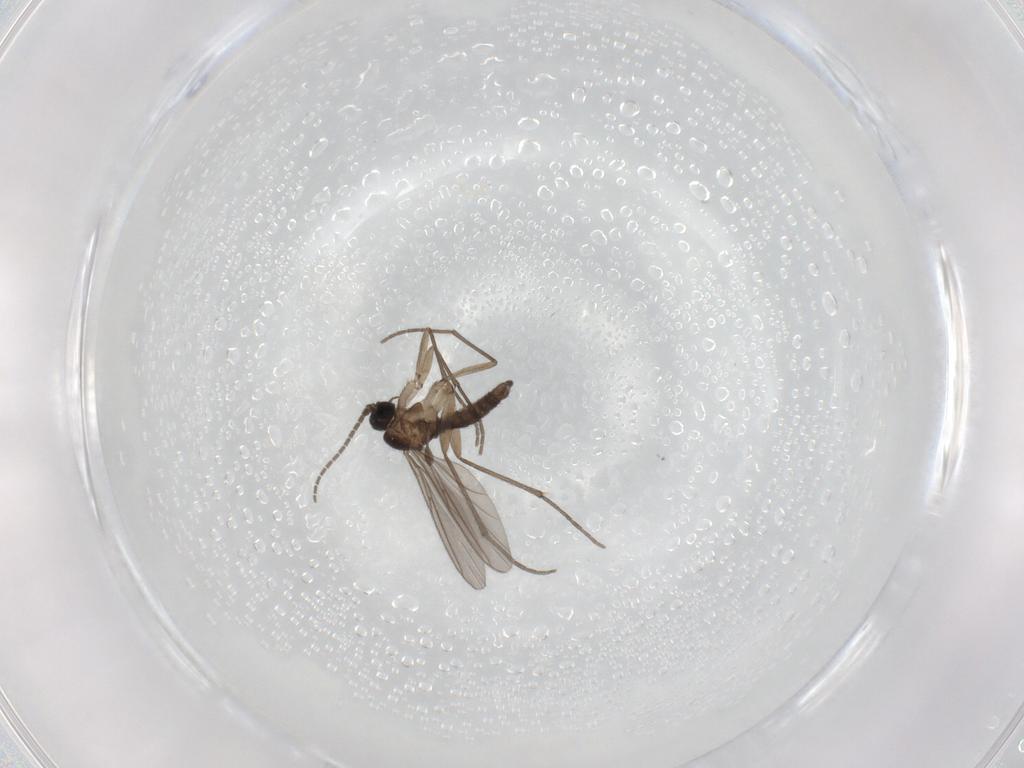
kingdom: Animalia
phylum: Arthropoda
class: Insecta
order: Diptera
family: Sciaridae
